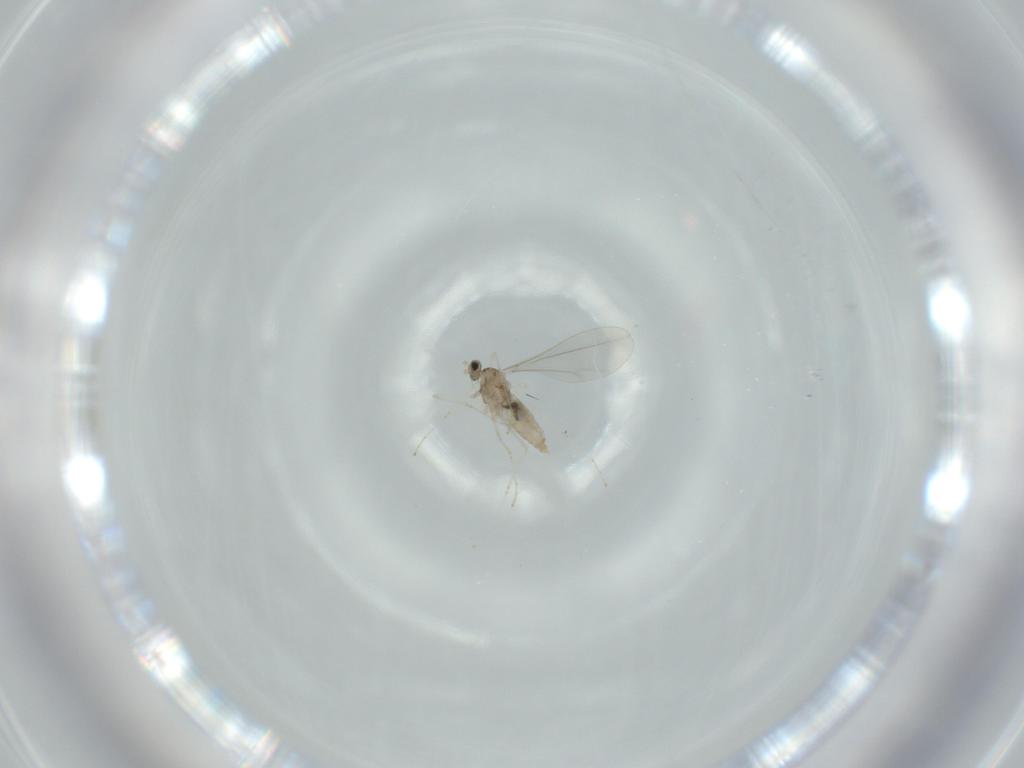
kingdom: Animalia
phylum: Arthropoda
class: Insecta
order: Diptera
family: Cecidomyiidae
